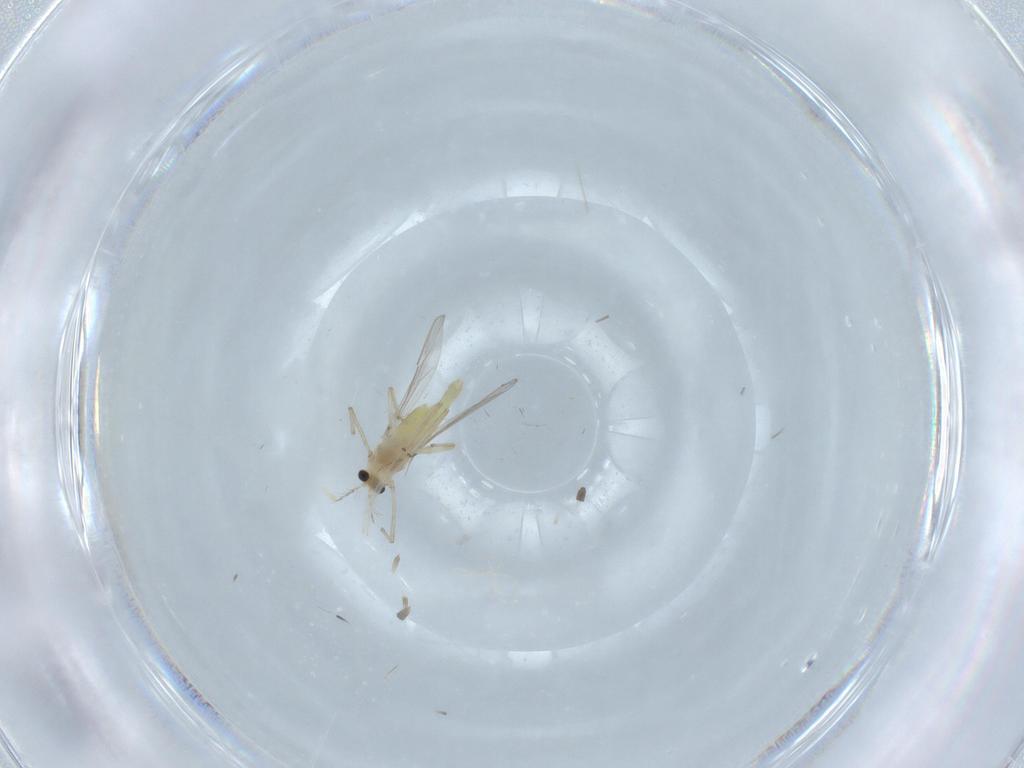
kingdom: Animalia
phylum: Arthropoda
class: Insecta
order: Diptera
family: Chironomidae
